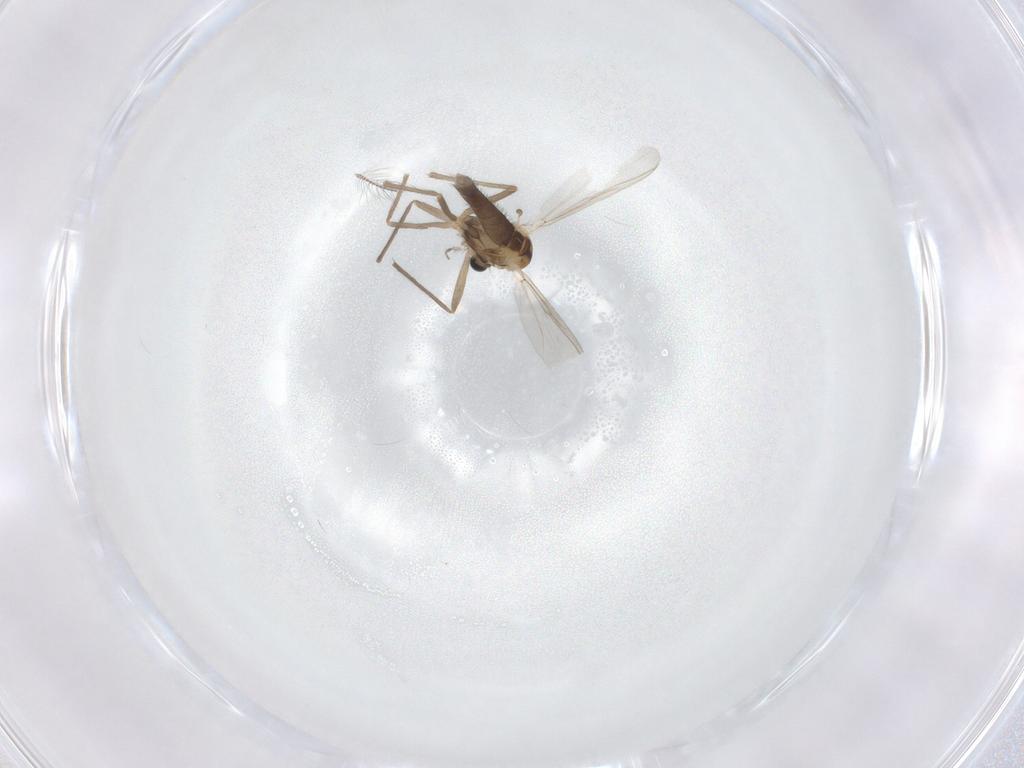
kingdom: Animalia
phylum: Arthropoda
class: Insecta
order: Diptera
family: Chironomidae
